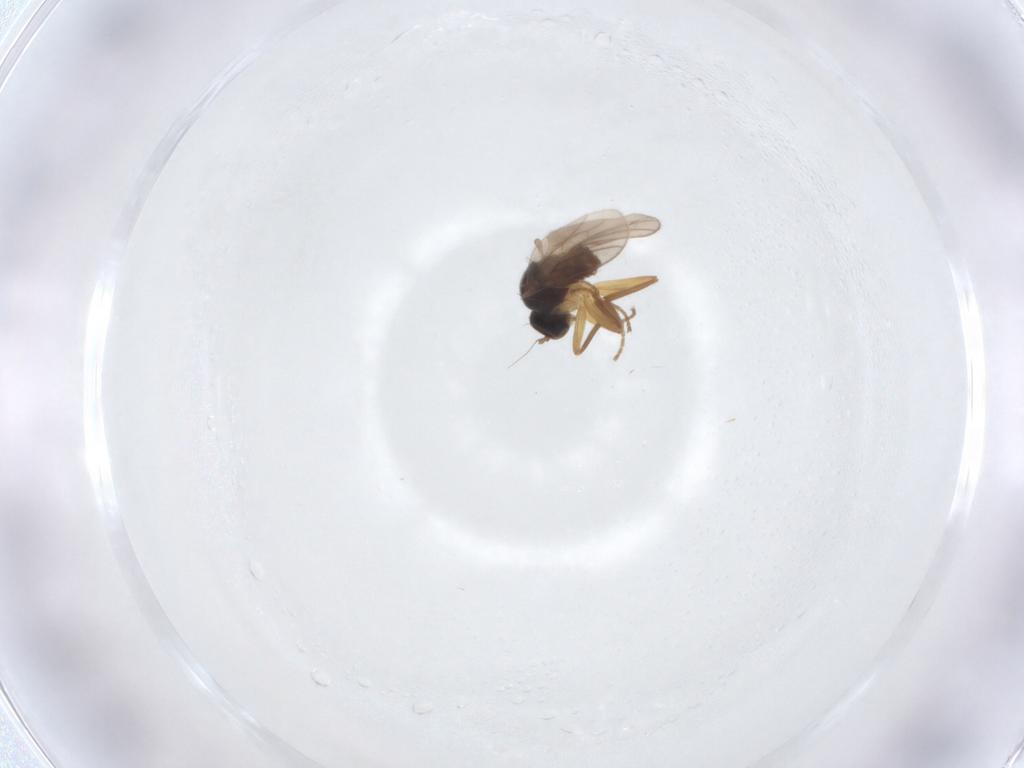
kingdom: Animalia
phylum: Arthropoda
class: Insecta
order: Diptera
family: Hybotidae
